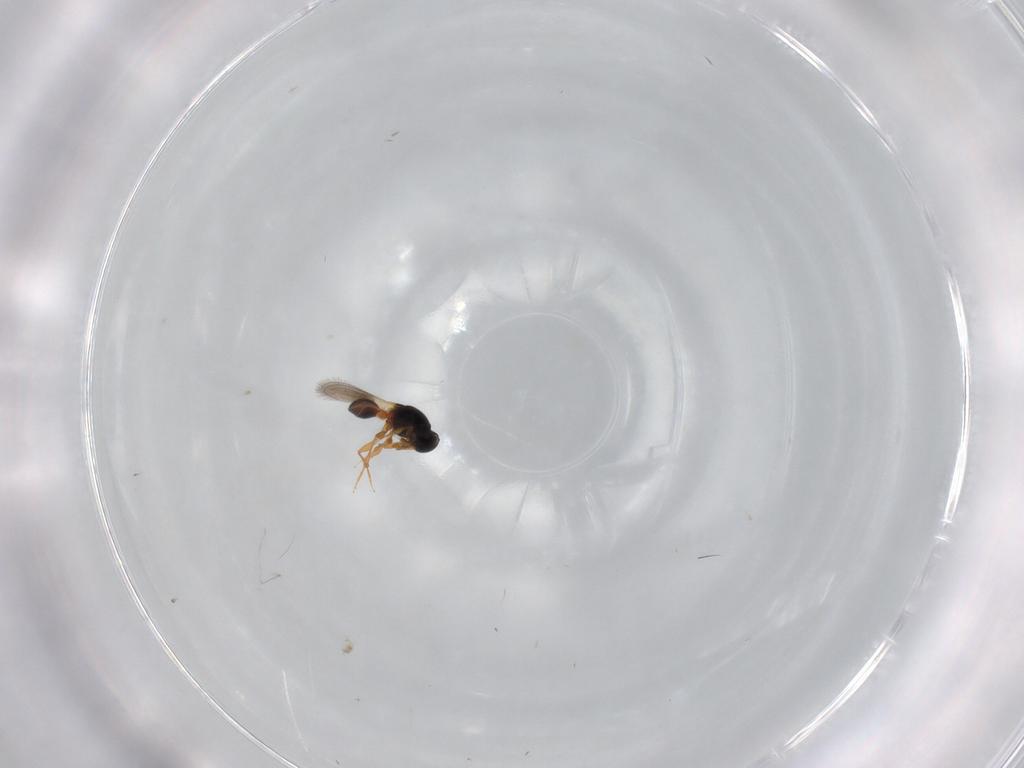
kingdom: Animalia
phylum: Arthropoda
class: Insecta
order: Hymenoptera
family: Platygastridae
